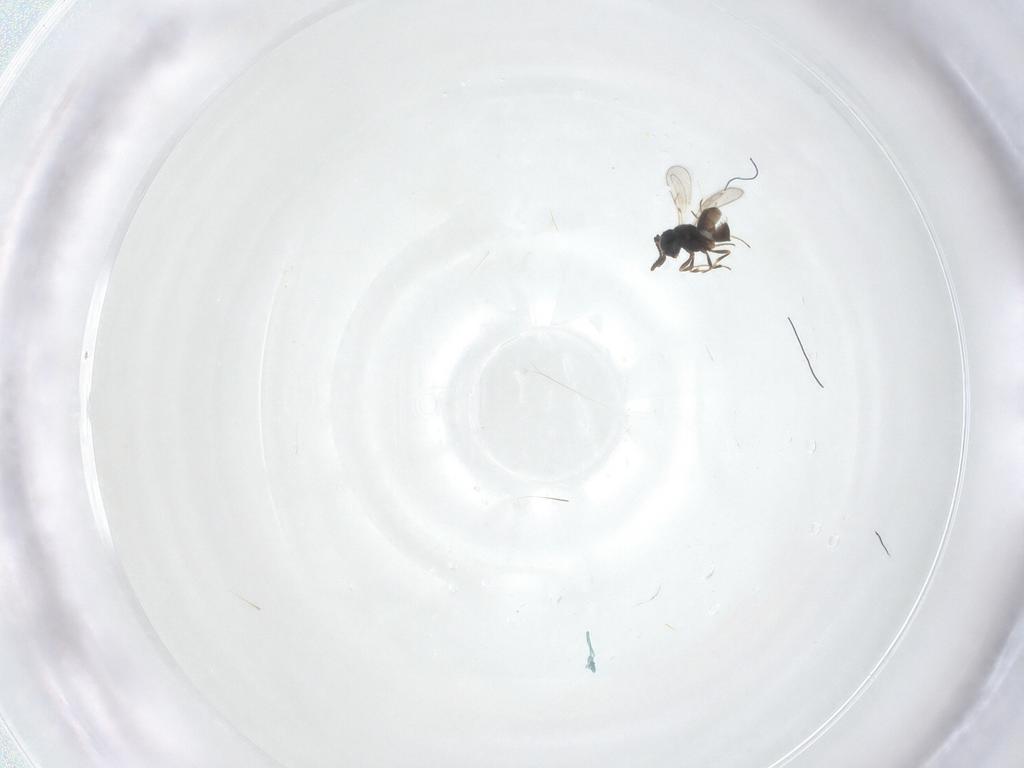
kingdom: Animalia
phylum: Arthropoda
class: Insecta
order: Hymenoptera
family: Scelionidae
